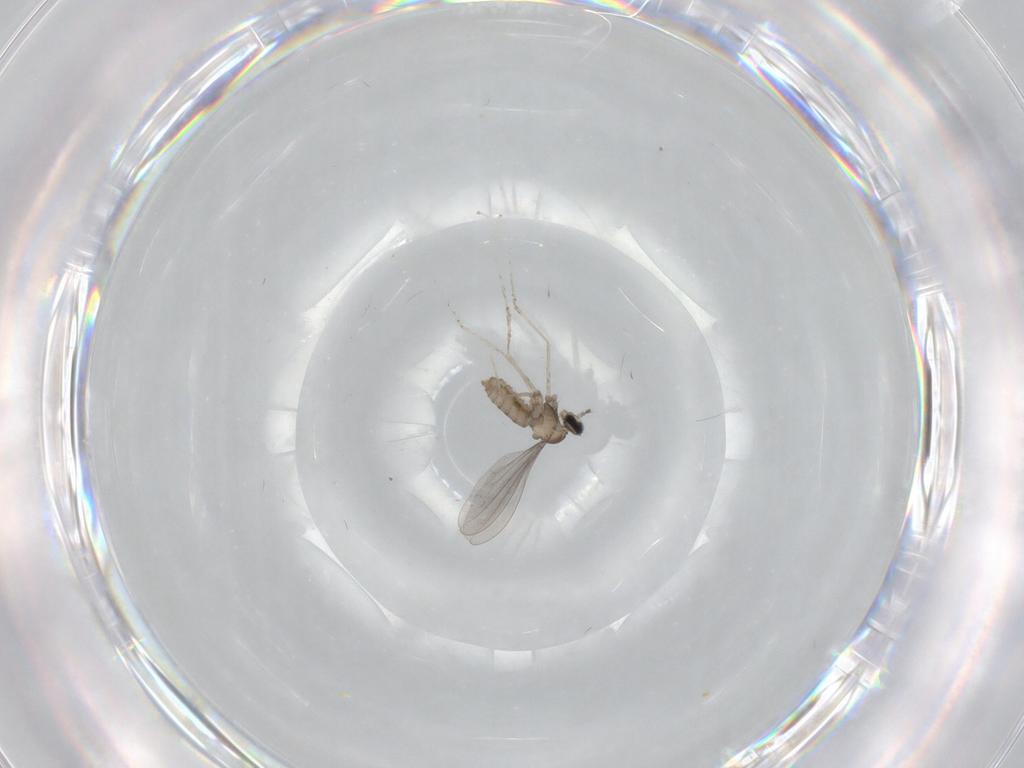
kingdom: Animalia
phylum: Arthropoda
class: Insecta
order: Diptera
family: Cecidomyiidae
